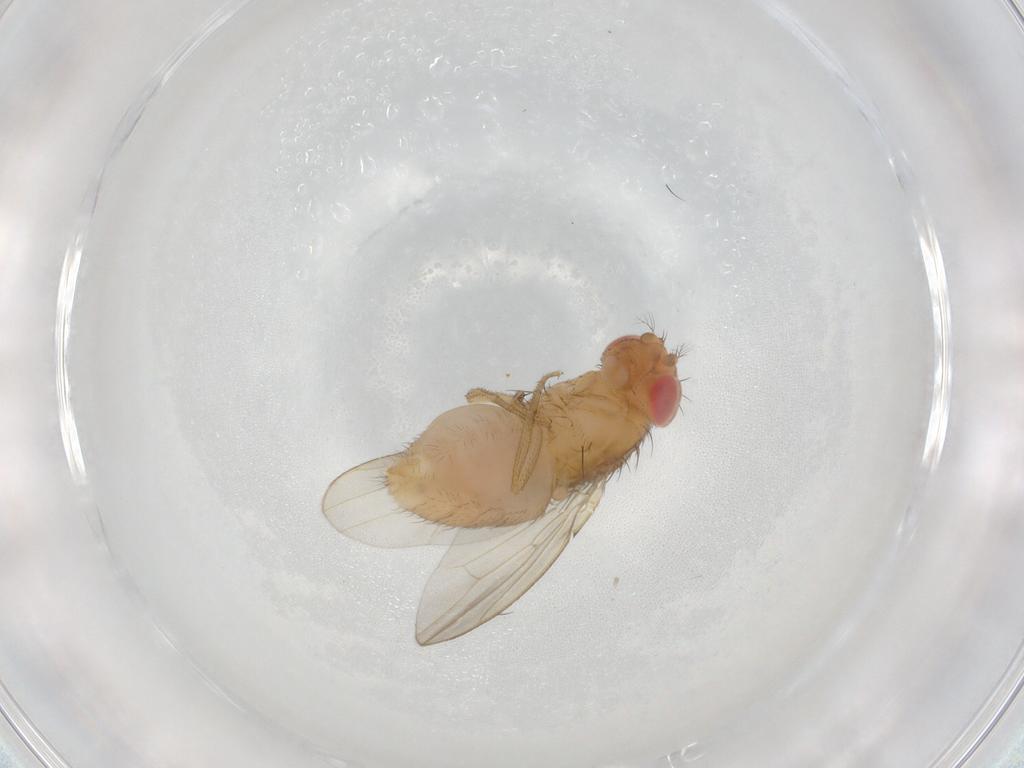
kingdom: Animalia
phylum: Arthropoda
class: Insecta
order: Diptera
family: Drosophilidae
